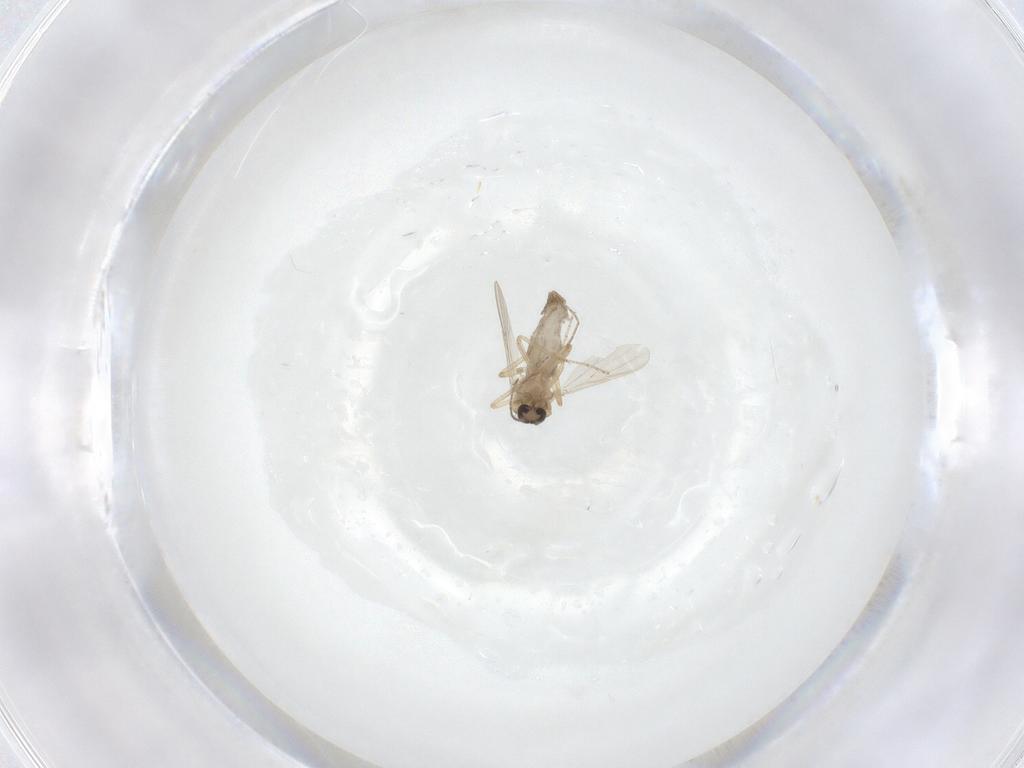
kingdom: Animalia
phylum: Arthropoda
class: Insecta
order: Diptera
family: Ceratopogonidae
